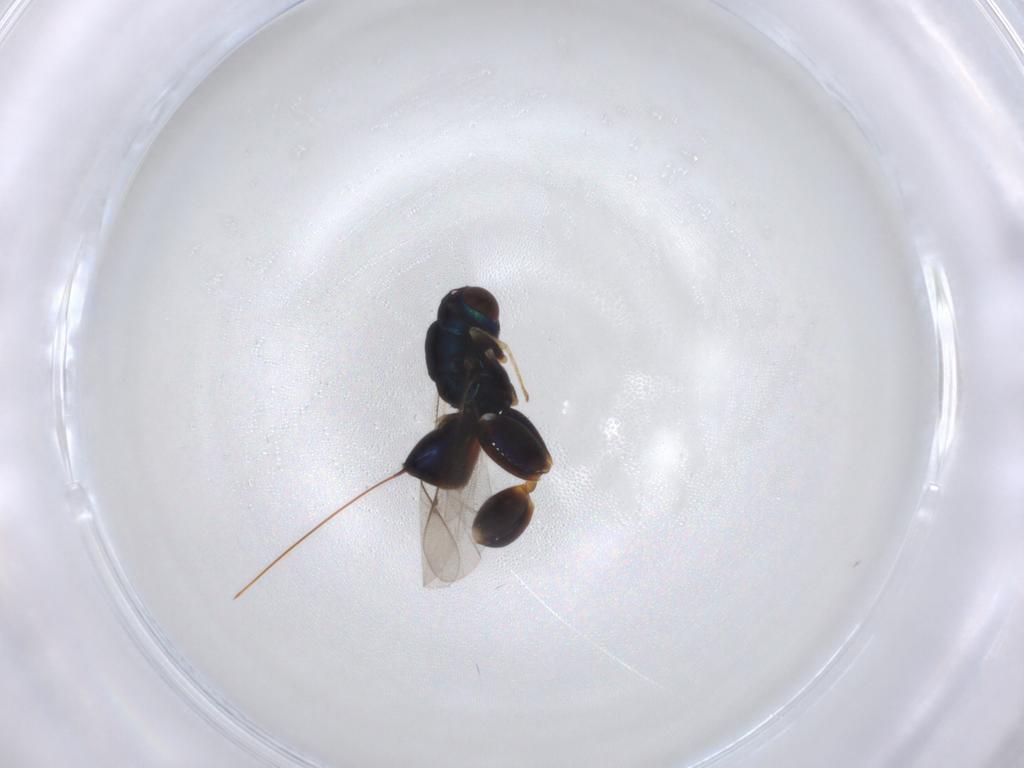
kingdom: Animalia
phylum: Arthropoda
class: Insecta
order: Hymenoptera
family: Torymidae
